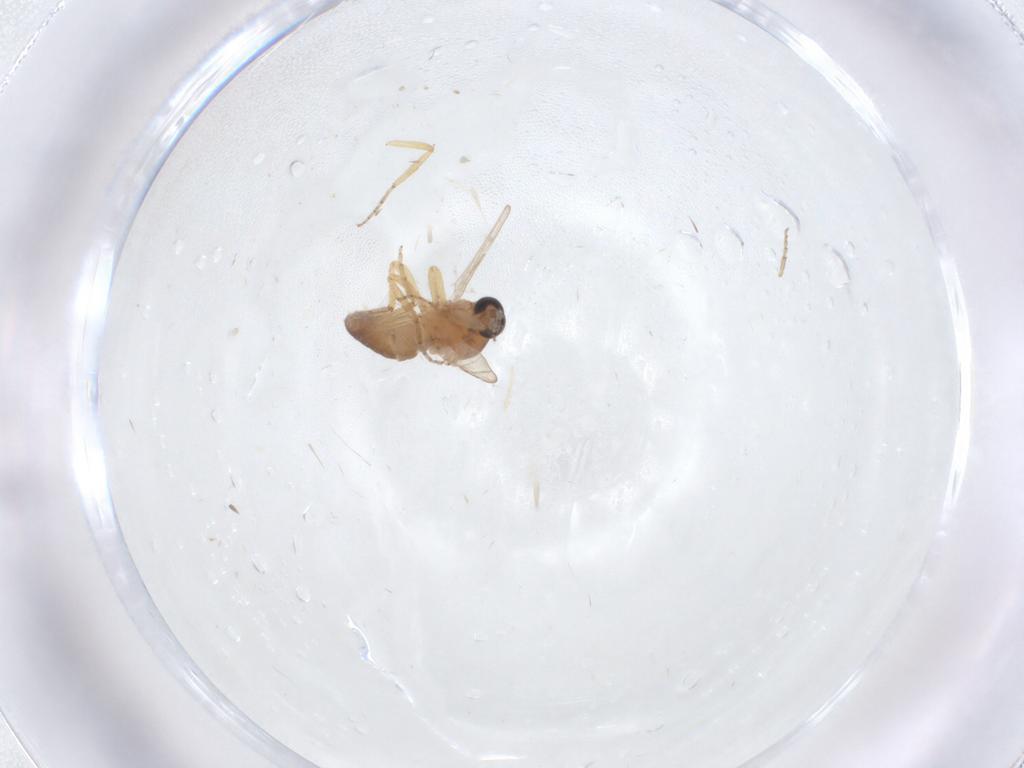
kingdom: Animalia
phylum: Arthropoda
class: Insecta
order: Diptera
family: Ceratopogonidae
